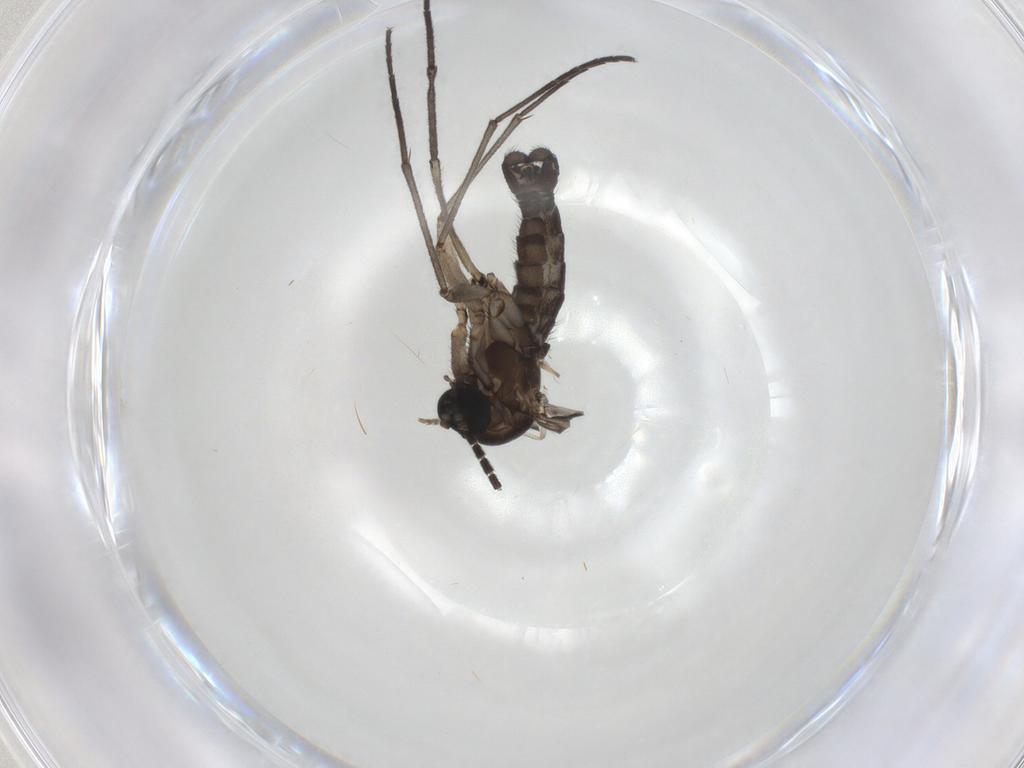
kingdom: Animalia
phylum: Arthropoda
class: Insecta
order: Diptera
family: Sciaridae
